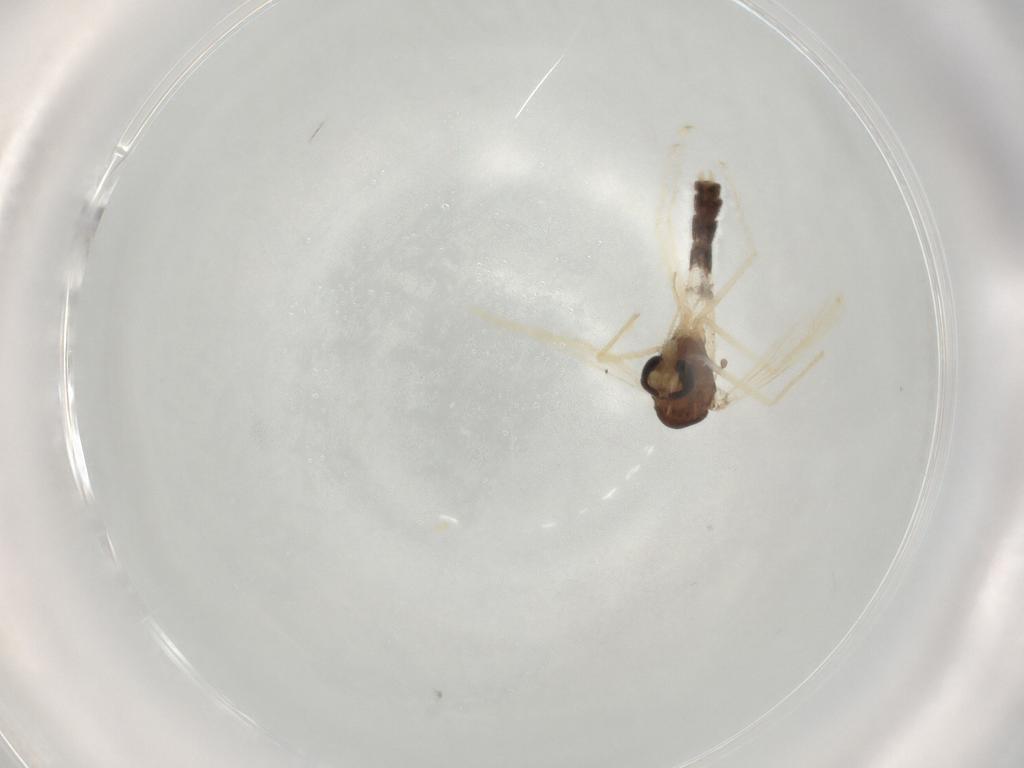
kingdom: Animalia
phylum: Arthropoda
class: Insecta
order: Diptera
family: Chironomidae
